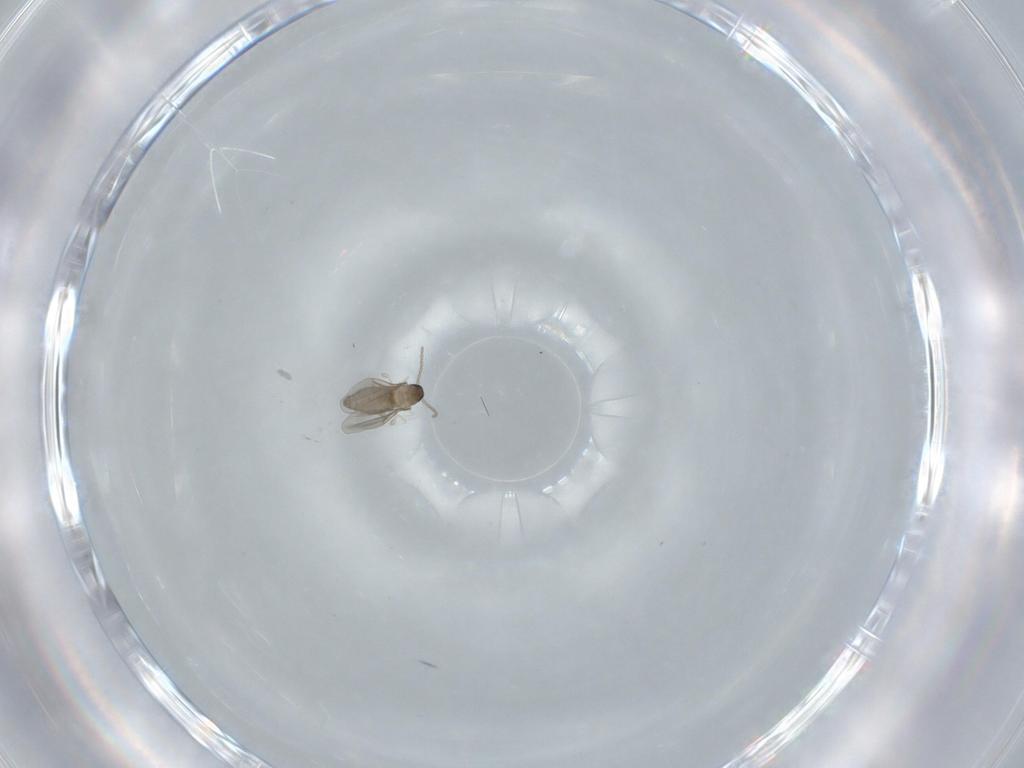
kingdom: Animalia
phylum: Arthropoda
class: Insecta
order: Diptera
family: Cecidomyiidae
